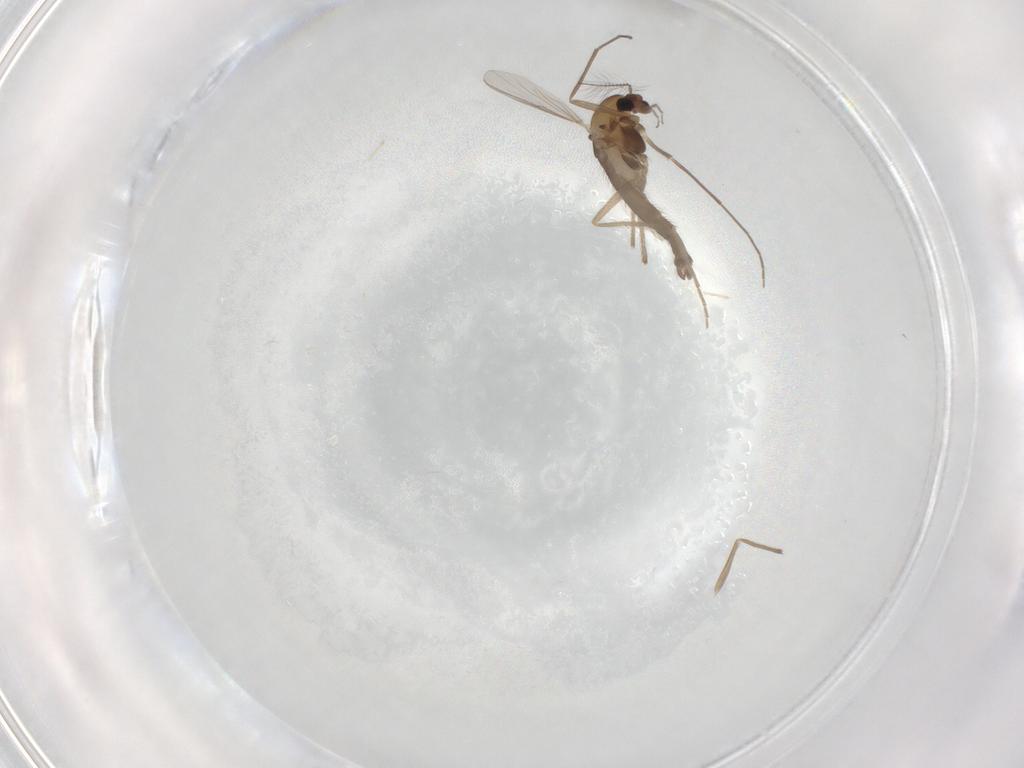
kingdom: Animalia
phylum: Arthropoda
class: Insecta
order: Diptera
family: Chironomidae
